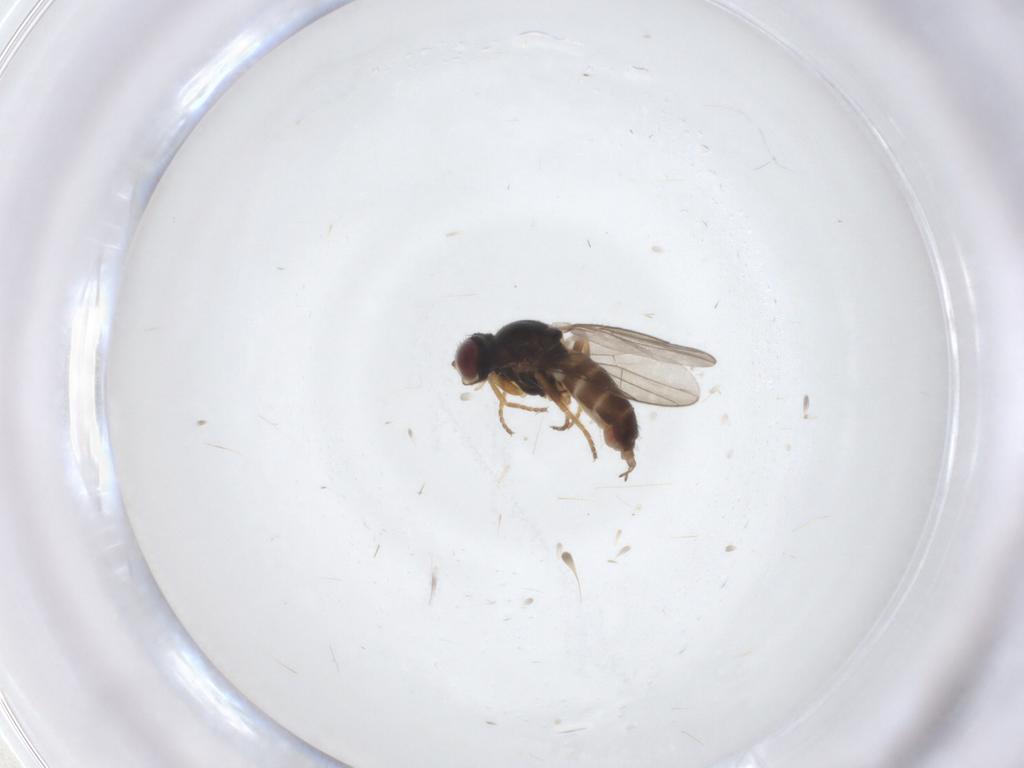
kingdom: Animalia
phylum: Arthropoda
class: Insecta
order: Diptera
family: Chloropidae
